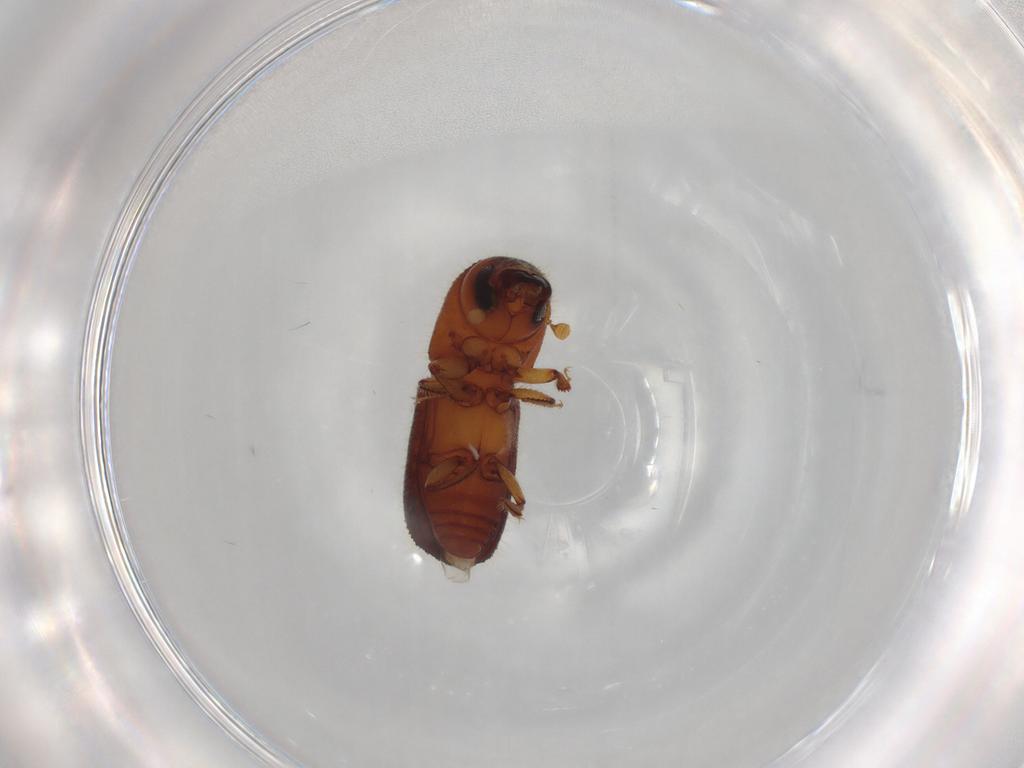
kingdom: Animalia
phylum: Arthropoda
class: Insecta
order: Coleoptera
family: Curculionidae
